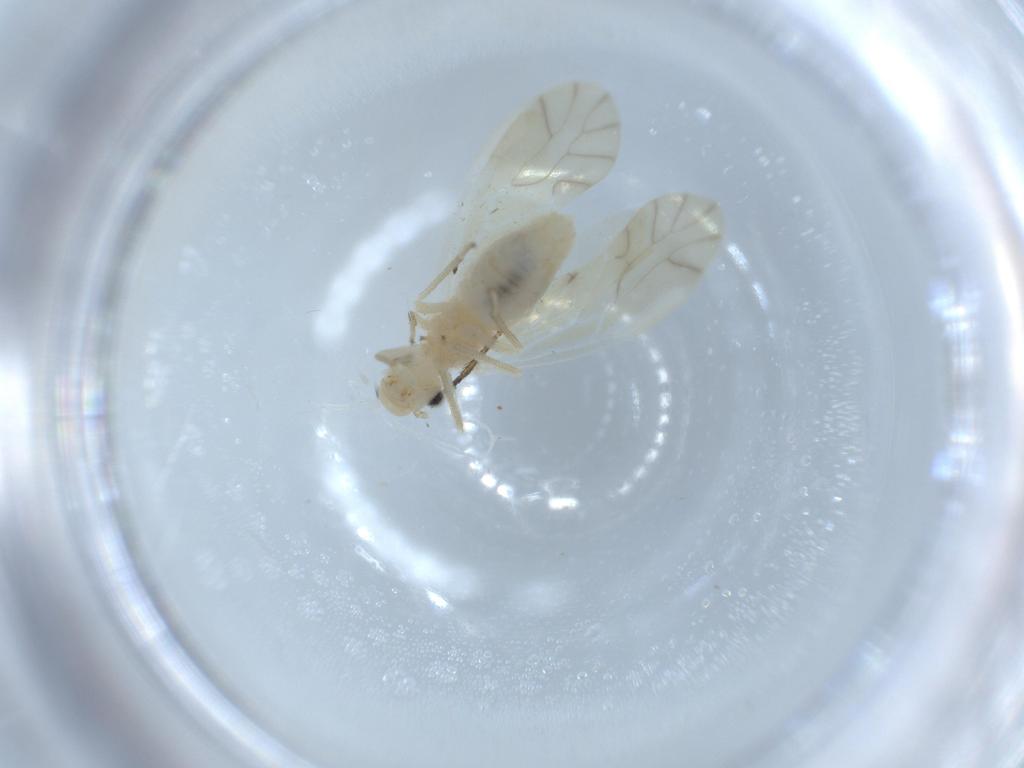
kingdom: Animalia
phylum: Arthropoda
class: Insecta
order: Psocodea
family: Caeciliusidae
